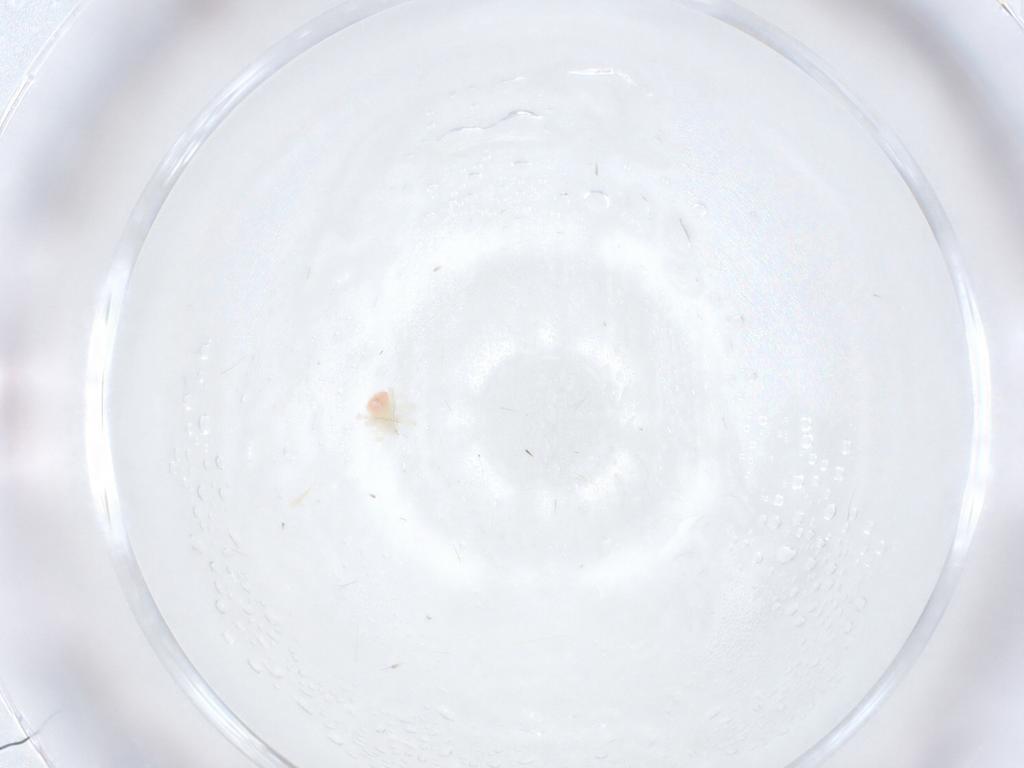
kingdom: Animalia
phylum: Arthropoda
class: Arachnida
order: Trombidiformes
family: Anystidae
